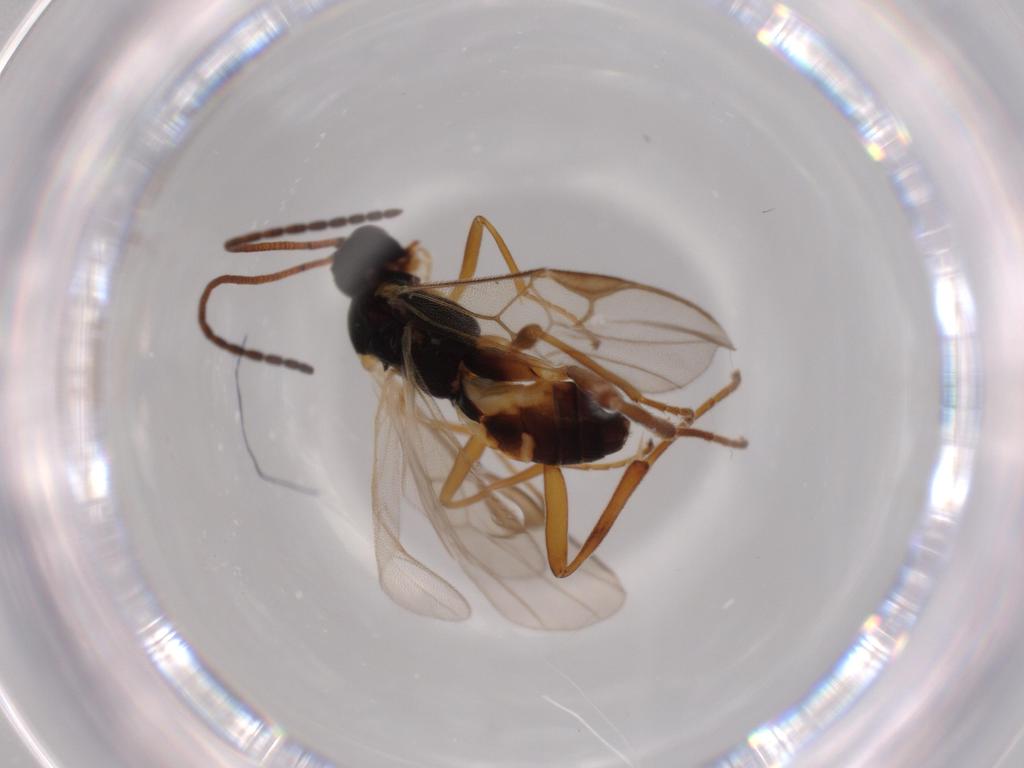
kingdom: Animalia
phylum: Arthropoda
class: Insecta
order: Hymenoptera
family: Braconidae
